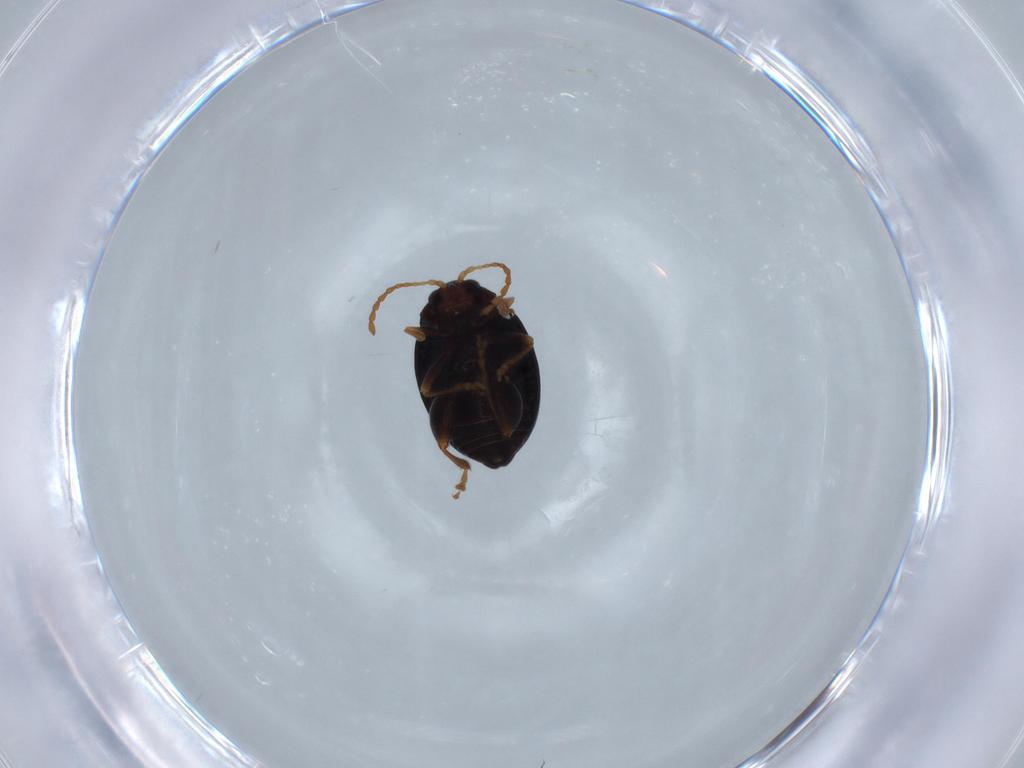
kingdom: Animalia
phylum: Arthropoda
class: Insecta
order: Coleoptera
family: Chrysomelidae
